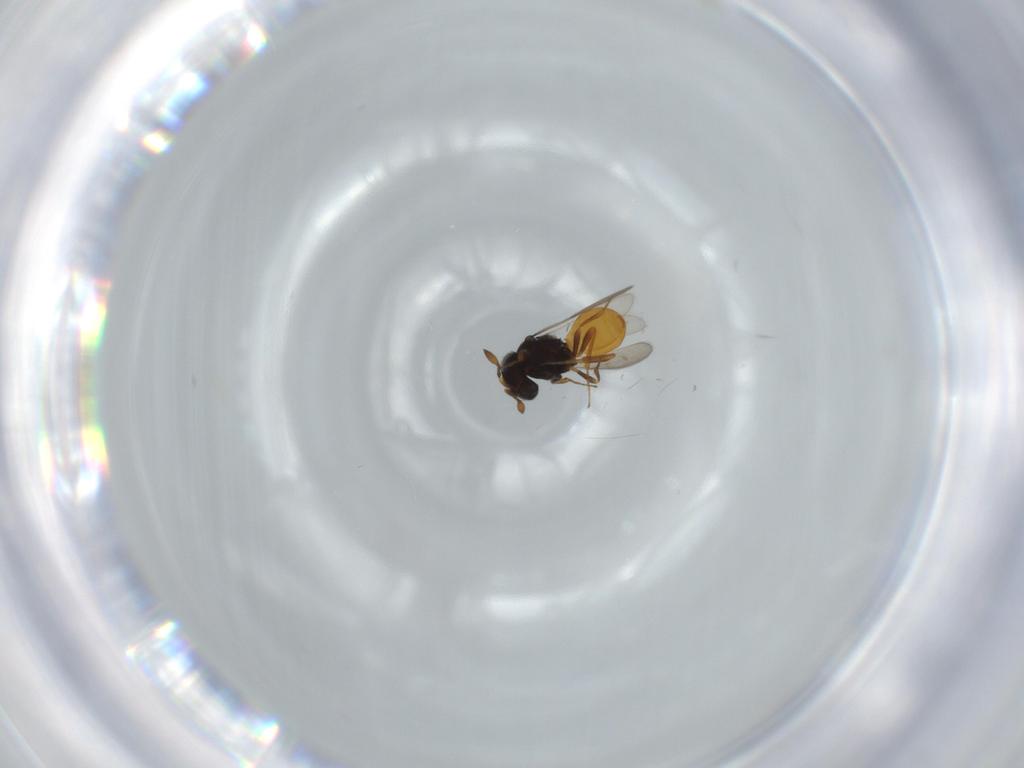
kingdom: Animalia
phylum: Arthropoda
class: Insecta
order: Hymenoptera
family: Scelionidae
